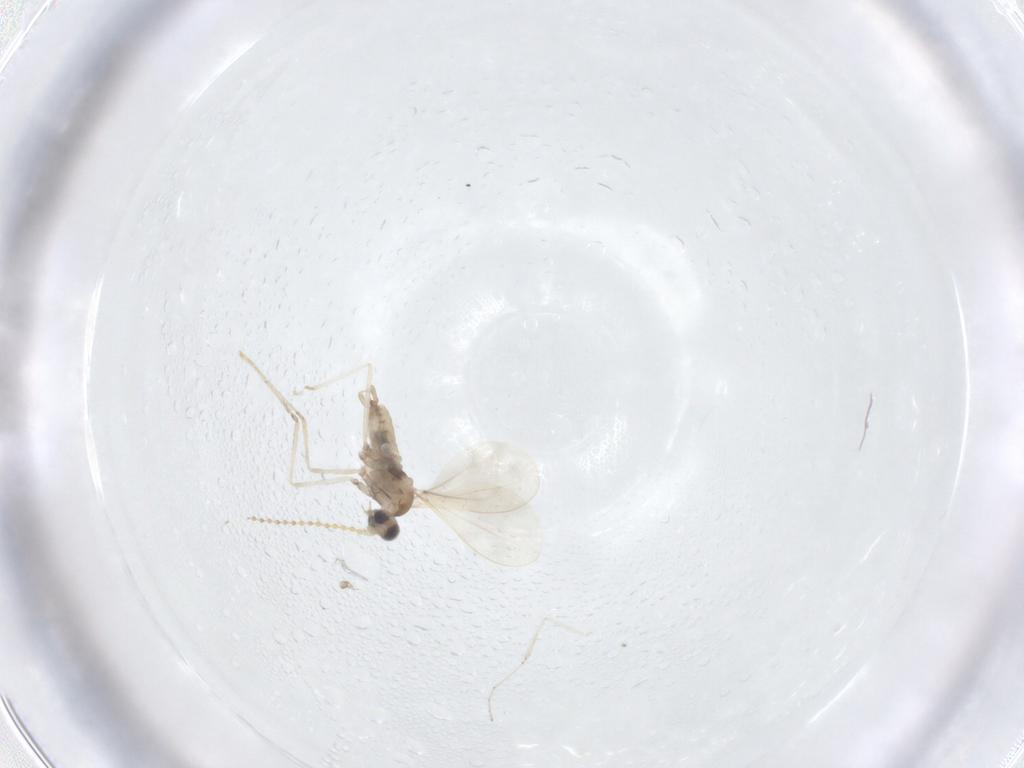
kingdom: Animalia
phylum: Arthropoda
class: Insecta
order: Diptera
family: Cecidomyiidae
